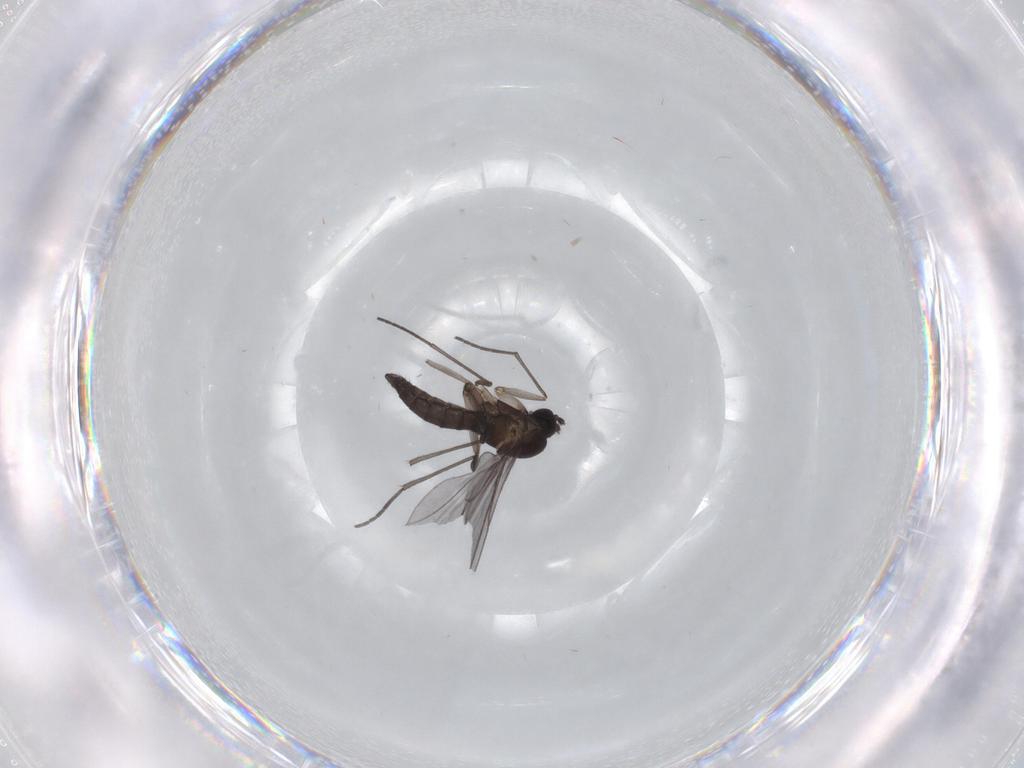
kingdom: Animalia
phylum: Arthropoda
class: Insecta
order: Diptera
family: Sciaridae
